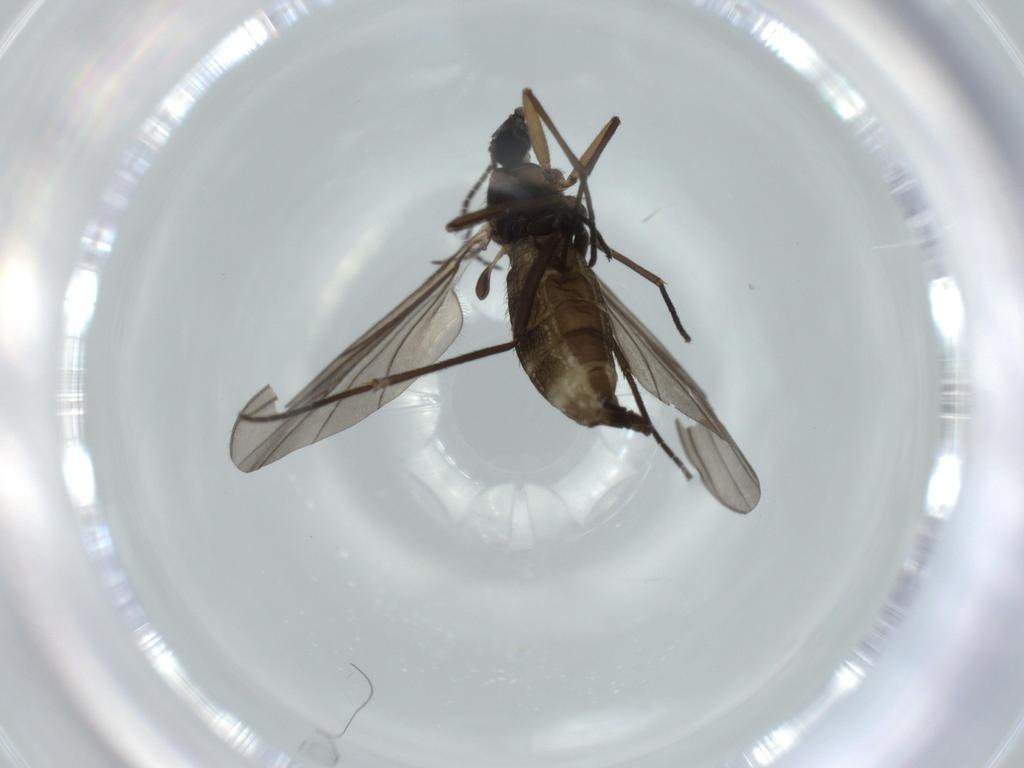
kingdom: Animalia
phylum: Arthropoda
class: Insecta
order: Diptera
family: Sciaridae
